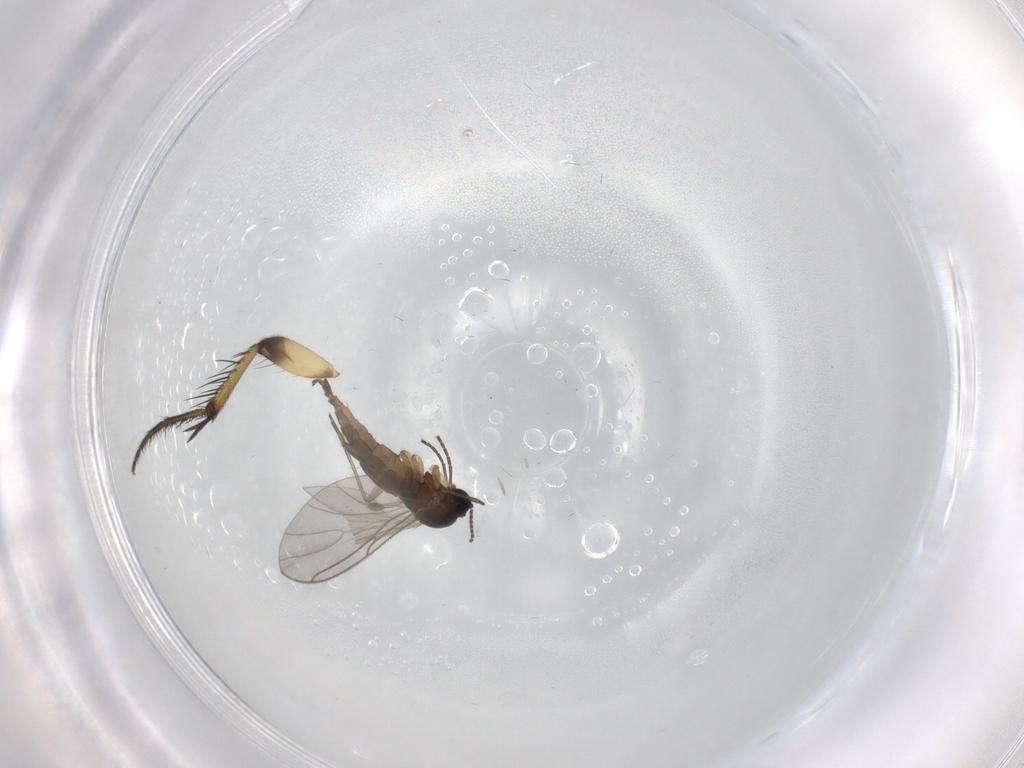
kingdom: Animalia
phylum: Arthropoda
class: Insecta
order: Diptera
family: Sciaridae
